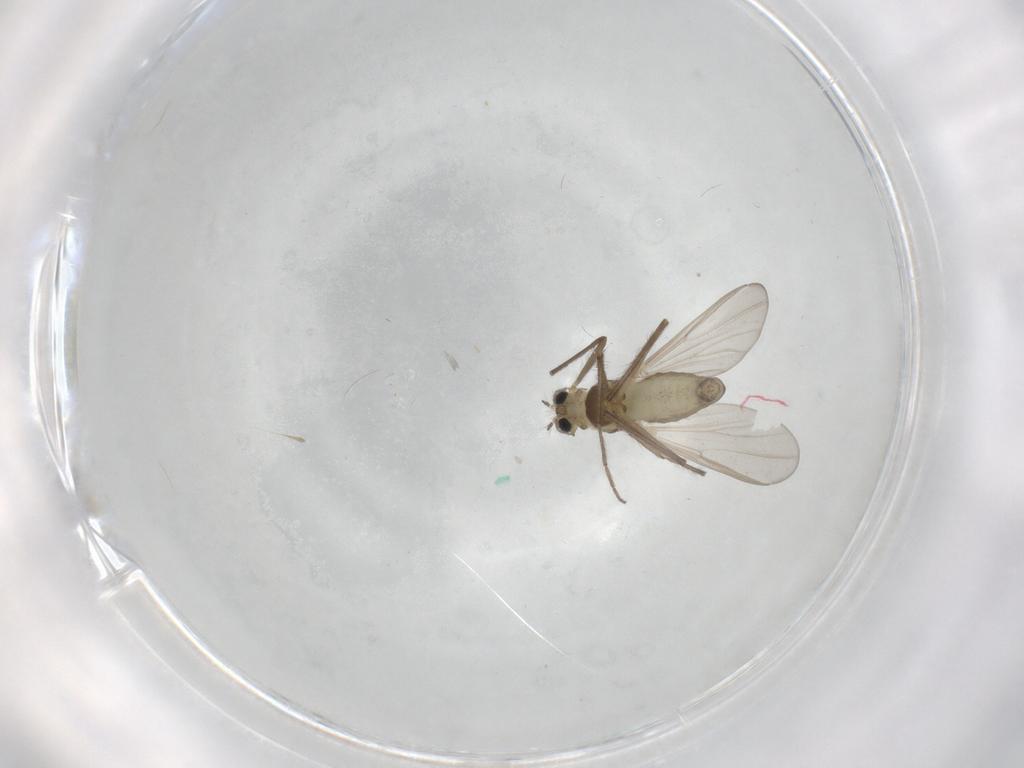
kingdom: Animalia
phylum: Arthropoda
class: Insecta
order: Diptera
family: Chironomidae
